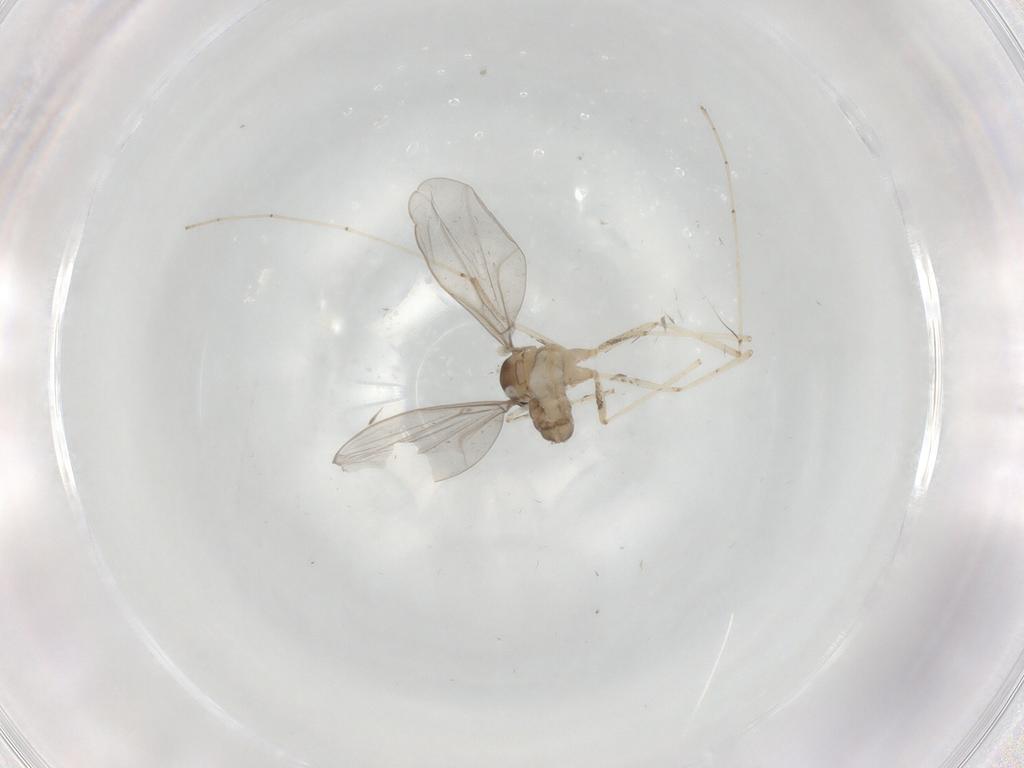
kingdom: Animalia
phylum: Arthropoda
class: Insecta
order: Diptera
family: Cecidomyiidae
